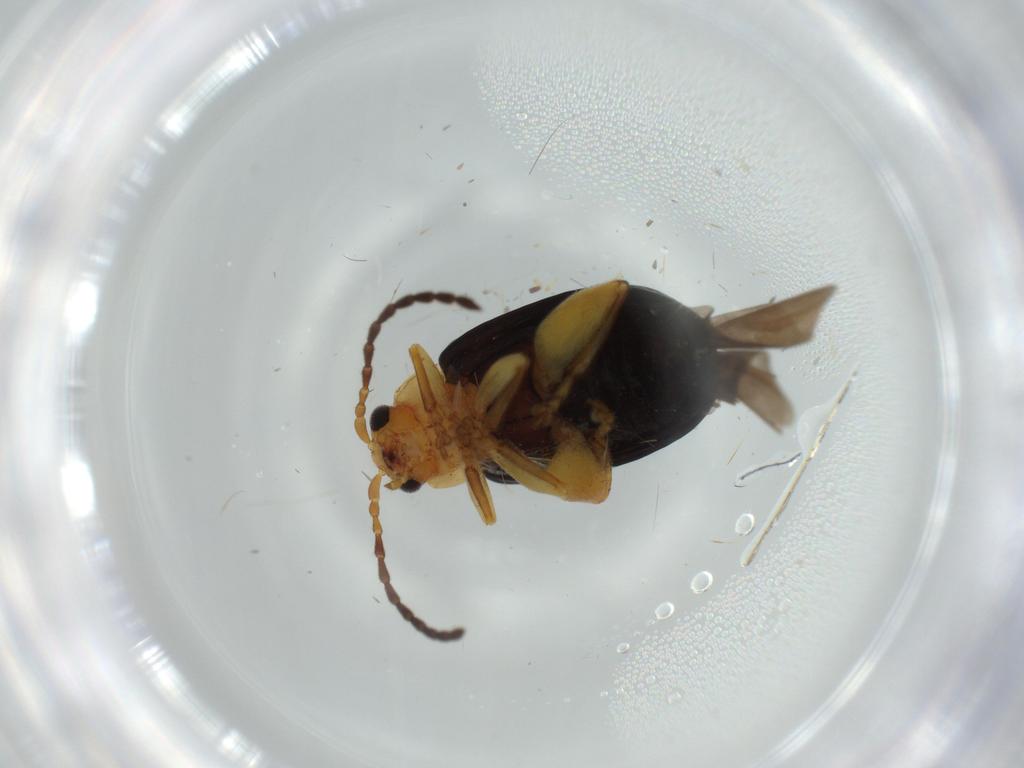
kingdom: Animalia
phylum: Arthropoda
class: Insecta
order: Coleoptera
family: Chrysomelidae
